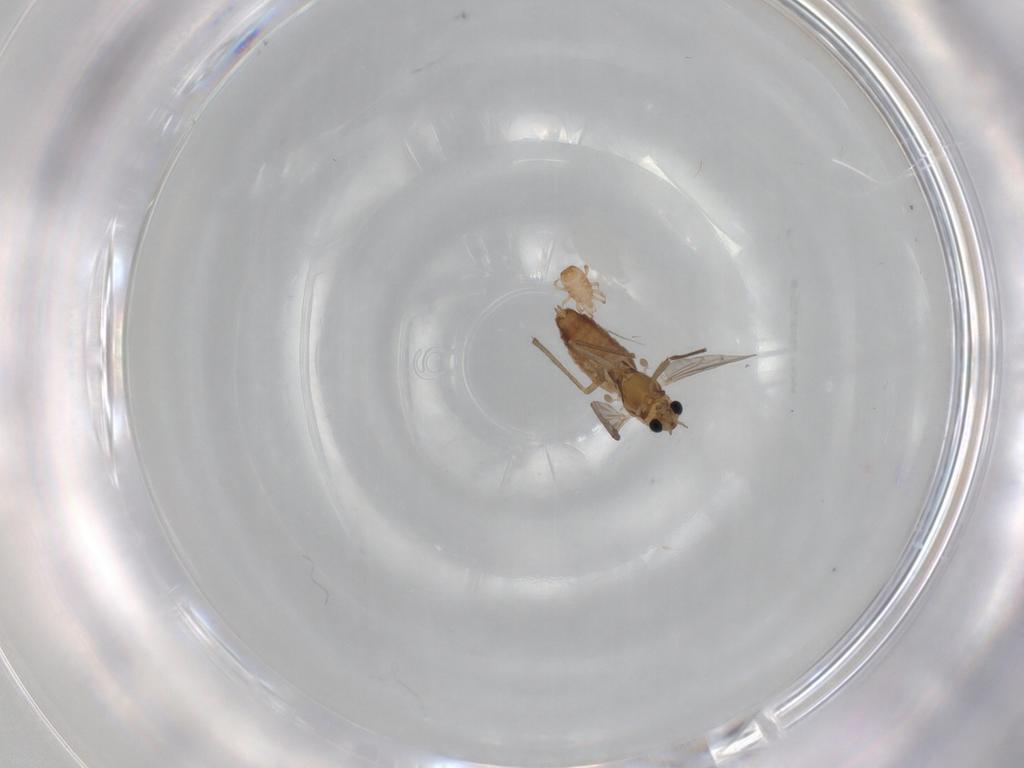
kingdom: Animalia
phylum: Arthropoda
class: Insecta
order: Diptera
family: Chironomidae
